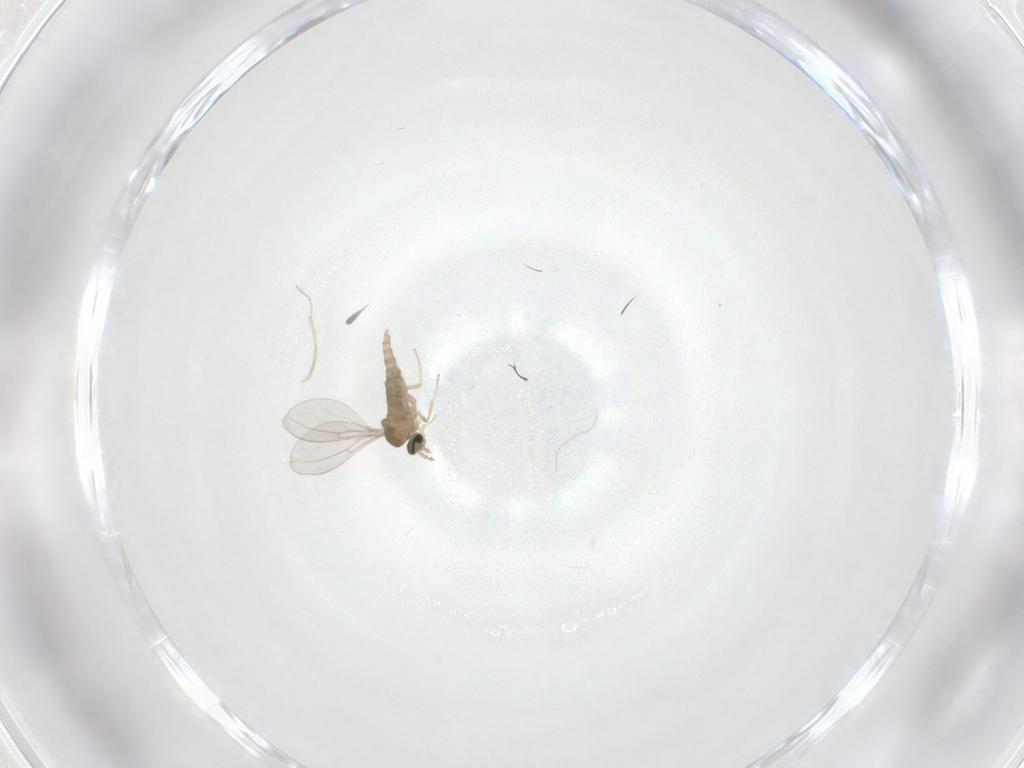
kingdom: Animalia
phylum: Arthropoda
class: Insecta
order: Diptera
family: Cecidomyiidae
